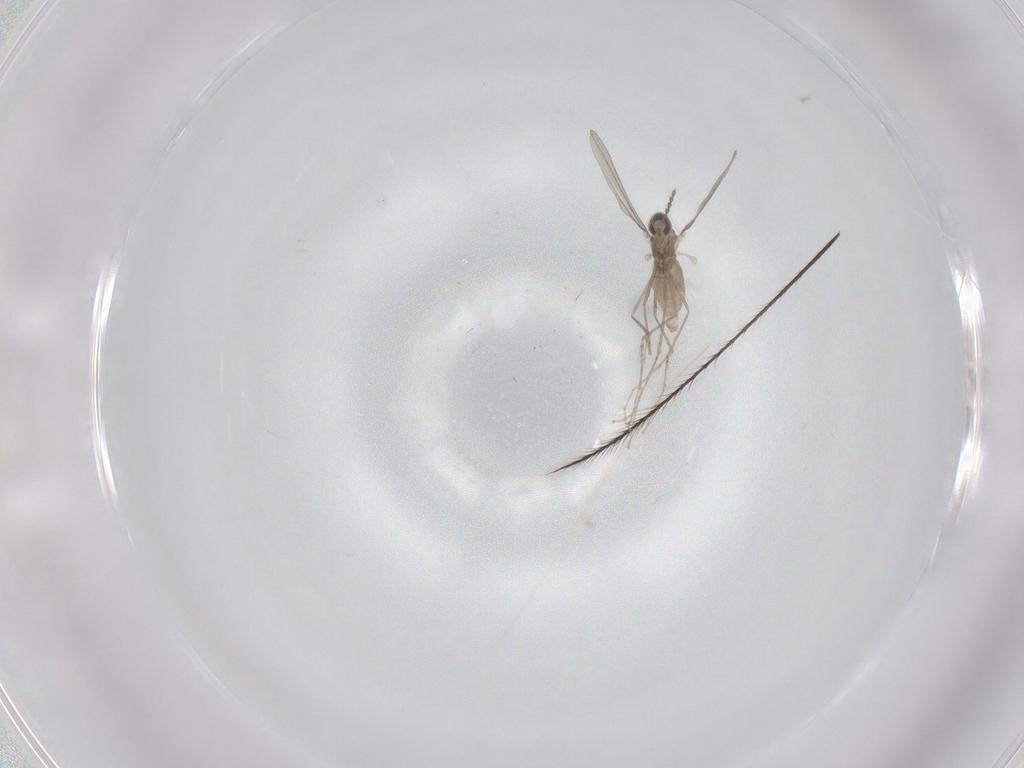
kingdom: Animalia
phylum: Arthropoda
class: Insecta
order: Diptera
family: Cecidomyiidae
